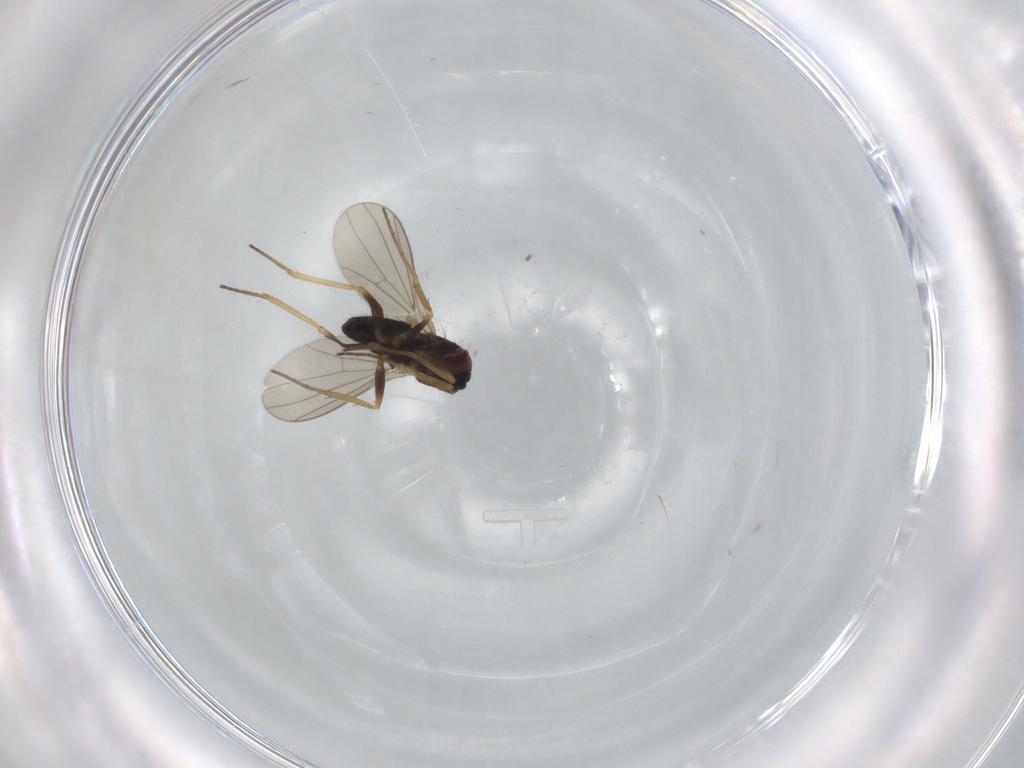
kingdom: Animalia
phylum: Arthropoda
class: Insecta
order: Diptera
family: Dolichopodidae
